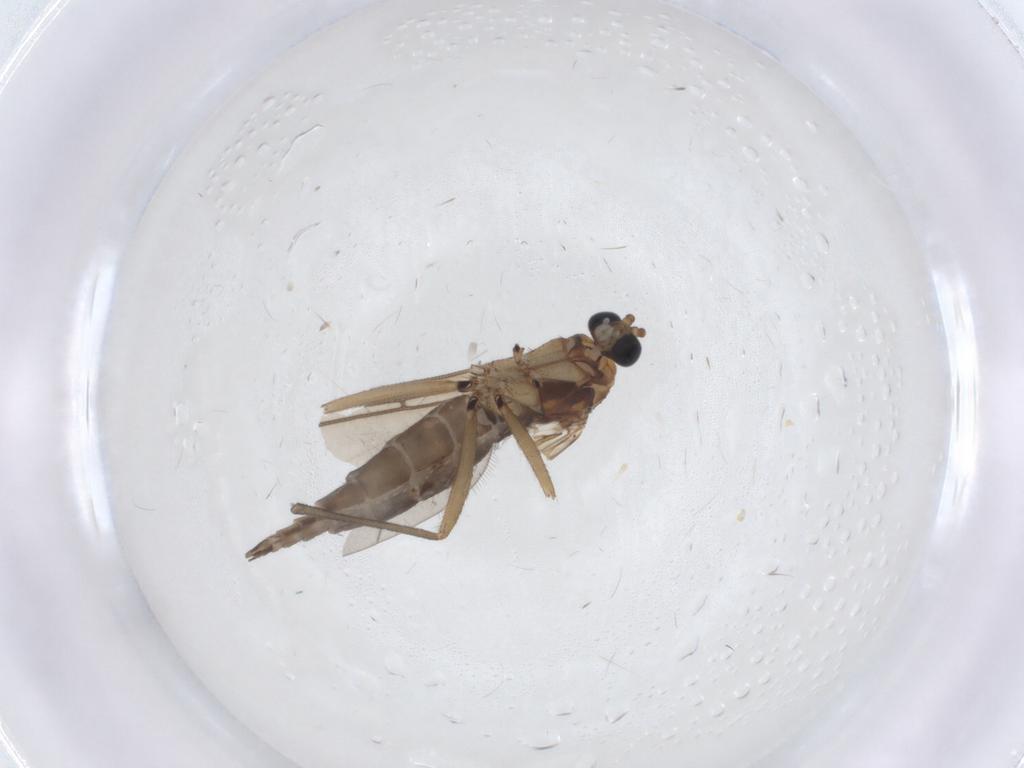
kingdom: Animalia
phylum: Arthropoda
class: Insecta
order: Diptera
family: Sciaridae
